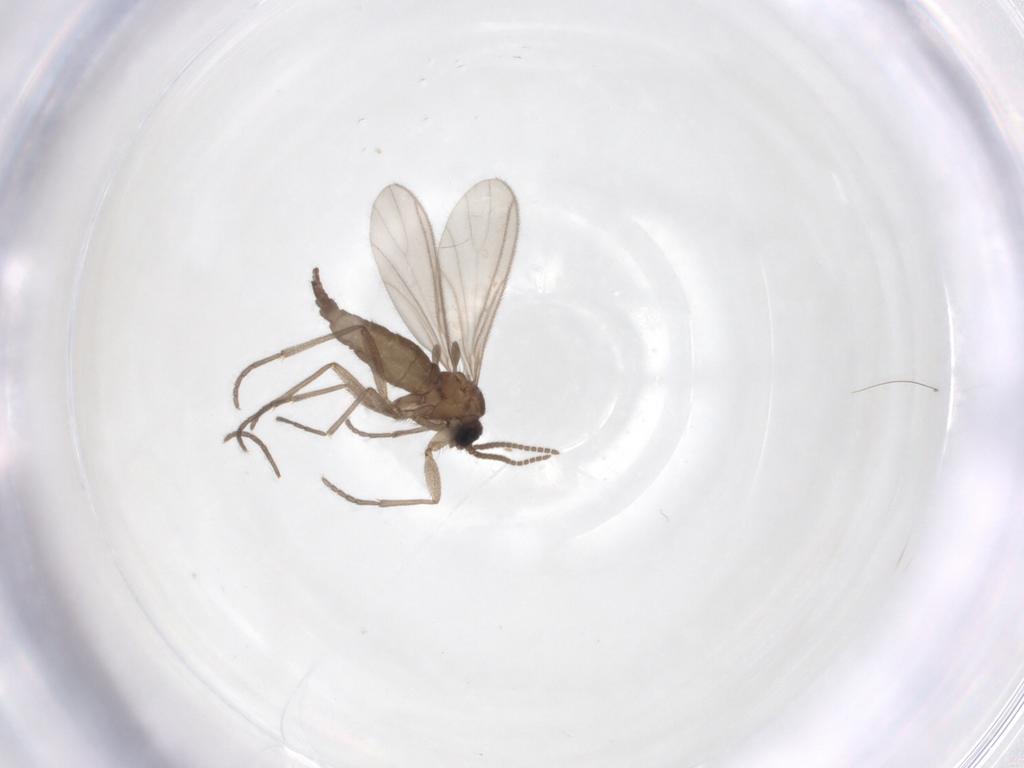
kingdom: Animalia
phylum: Arthropoda
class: Insecta
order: Diptera
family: Sciaridae
